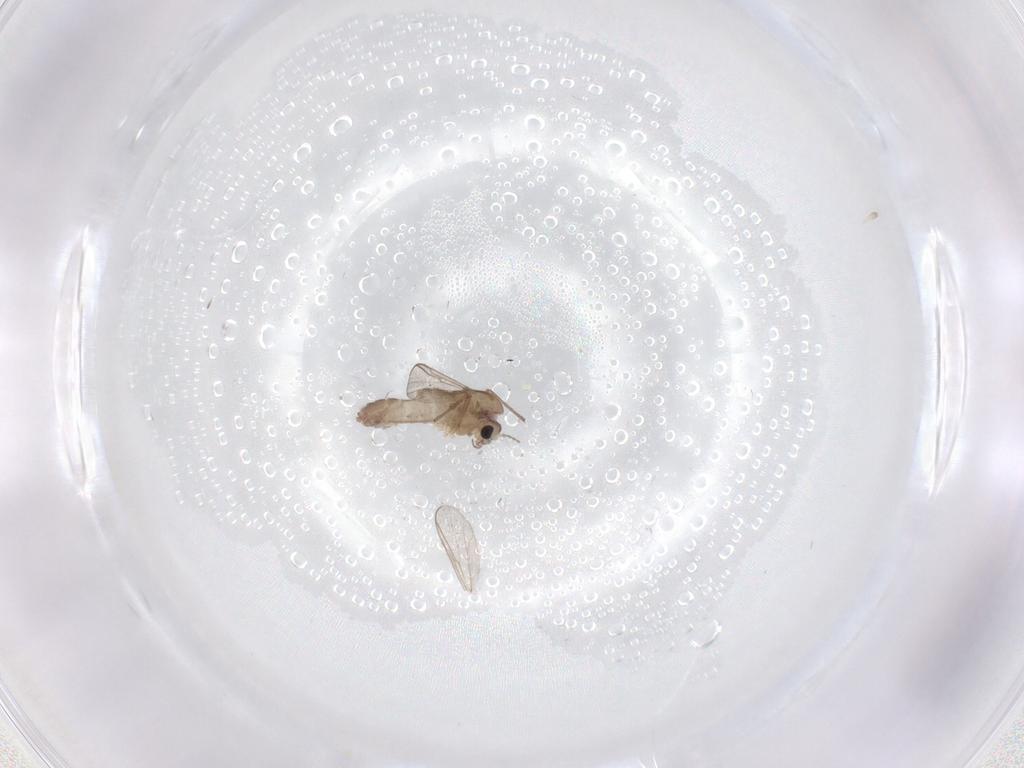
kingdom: Animalia
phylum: Arthropoda
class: Insecta
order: Diptera
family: Chironomidae
